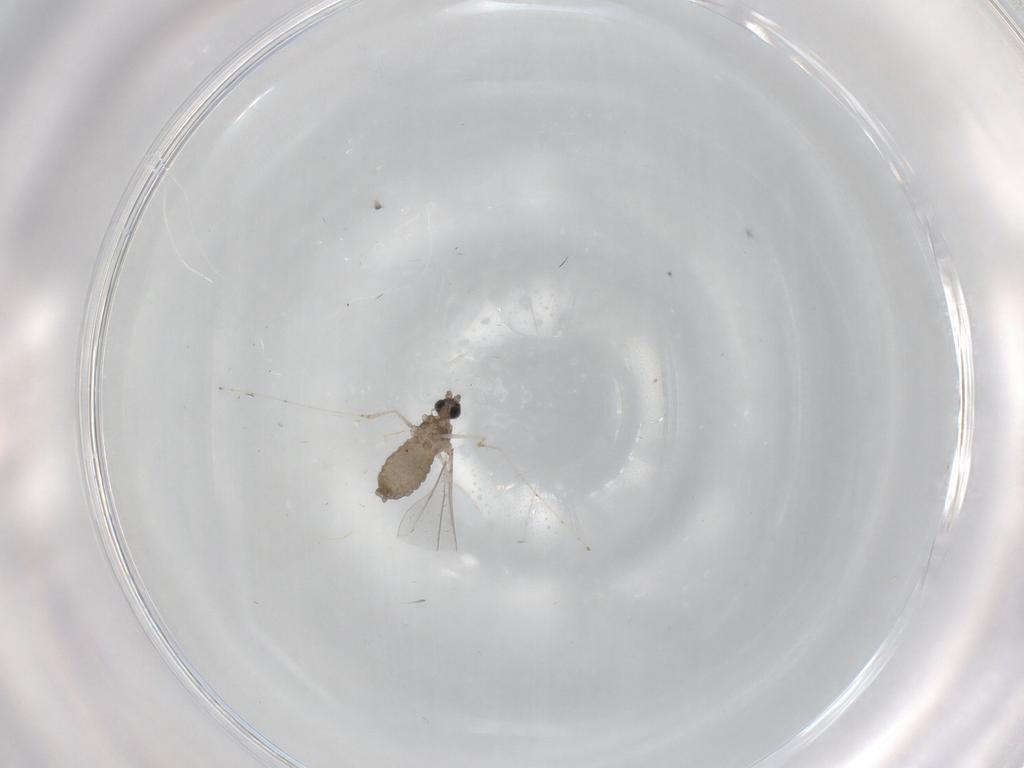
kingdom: Animalia
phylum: Arthropoda
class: Insecta
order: Diptera
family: Cecidomyiidae
